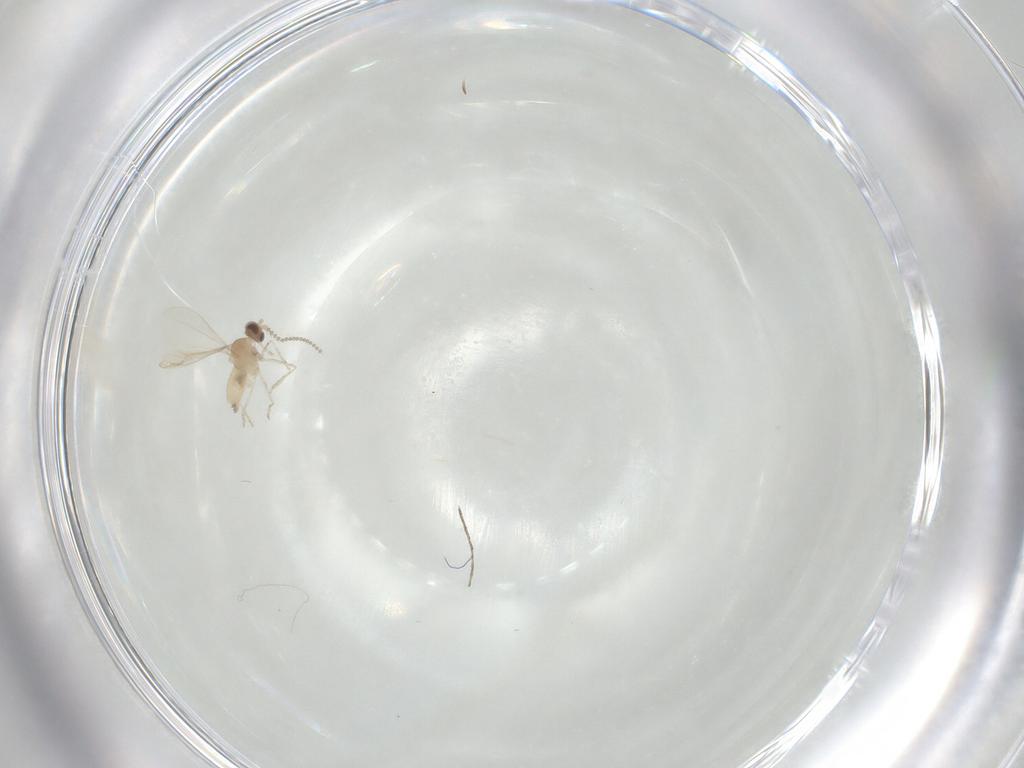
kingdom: Animalia
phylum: Arthropoda
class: Insecta
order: Diptera
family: Cecidomyiidae
